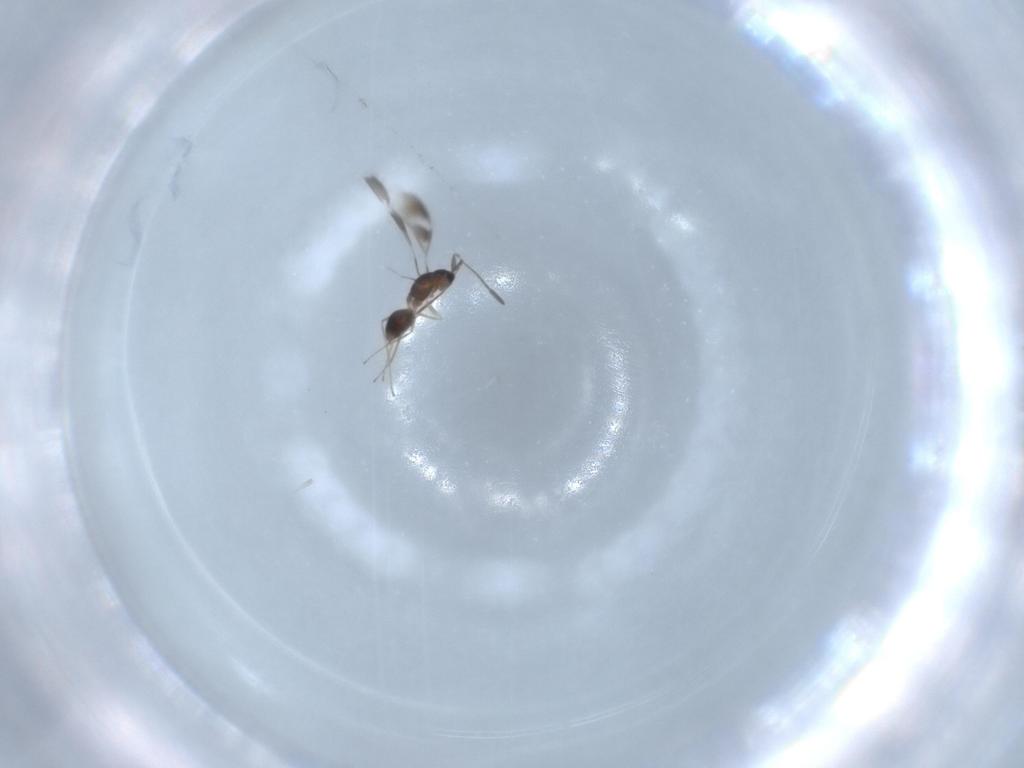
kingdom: Animalia
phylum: Arthropoda
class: Insecta
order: Hymenoptera
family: Mymaridae
